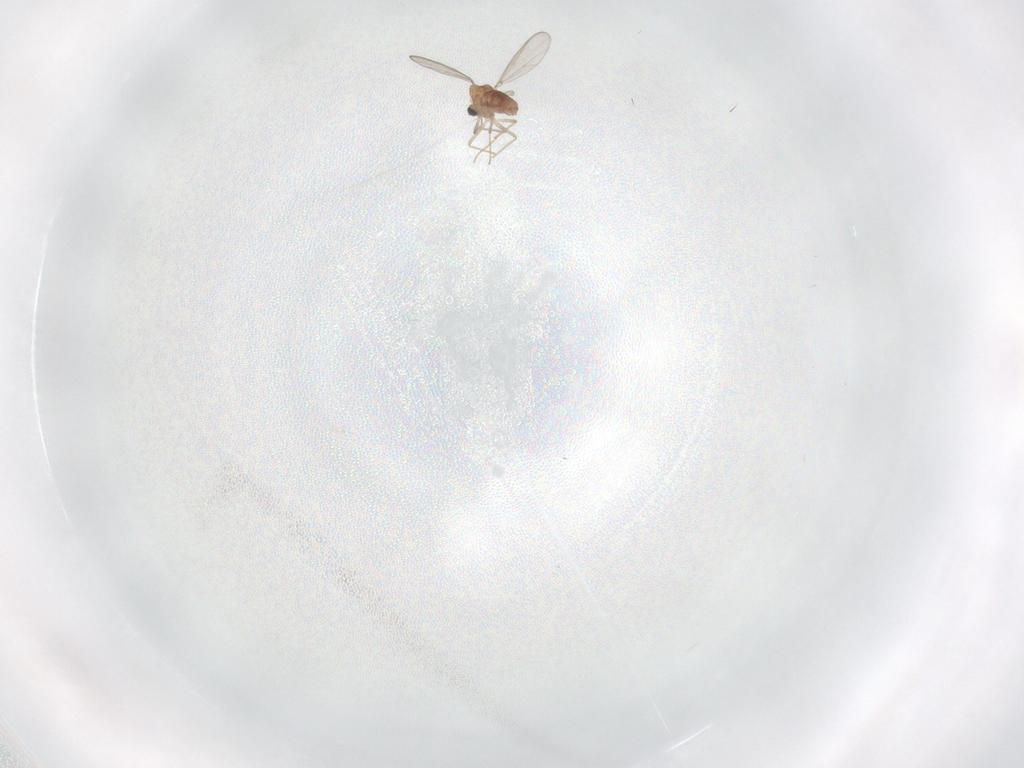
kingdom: Animalia
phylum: Arthropoda
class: Insecta
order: Diptera
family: Chironomidae
